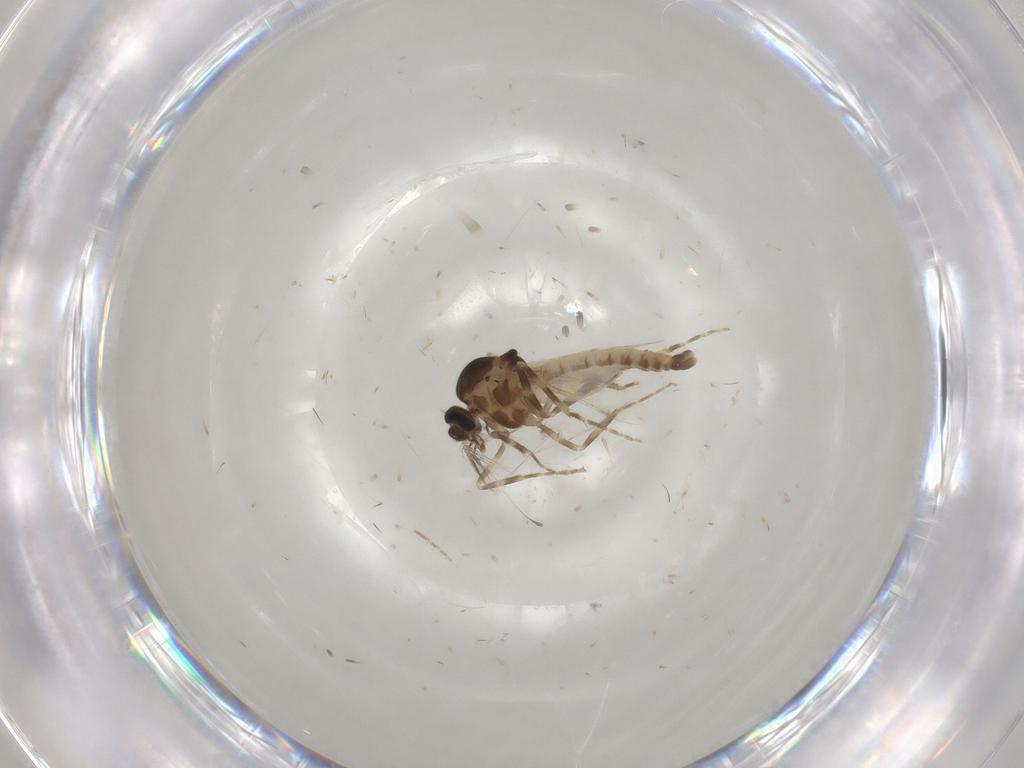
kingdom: Animalia
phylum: Arthropoda
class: Insecta
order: Diptera
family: Ceratopogonidae
